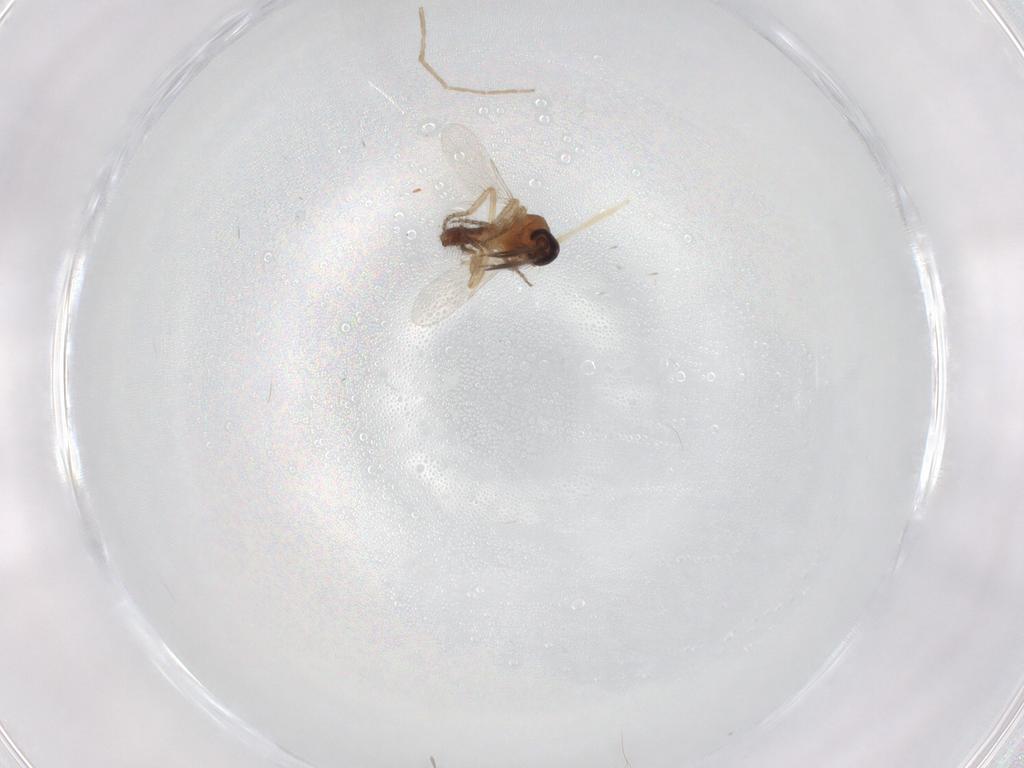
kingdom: Animalia
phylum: Arthropoda
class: Insecta
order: Diptera
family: Ceratopogonidae
